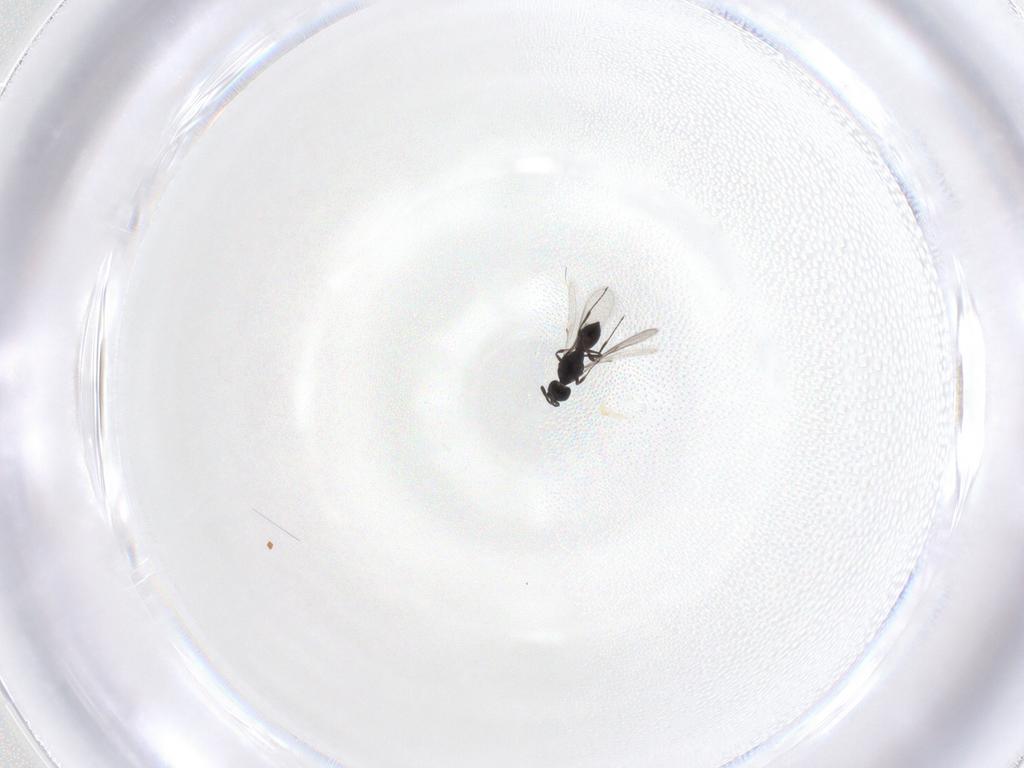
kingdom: Animalia
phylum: Arthropoda
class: Insecta
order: Hymenoptera
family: Scelionidae
